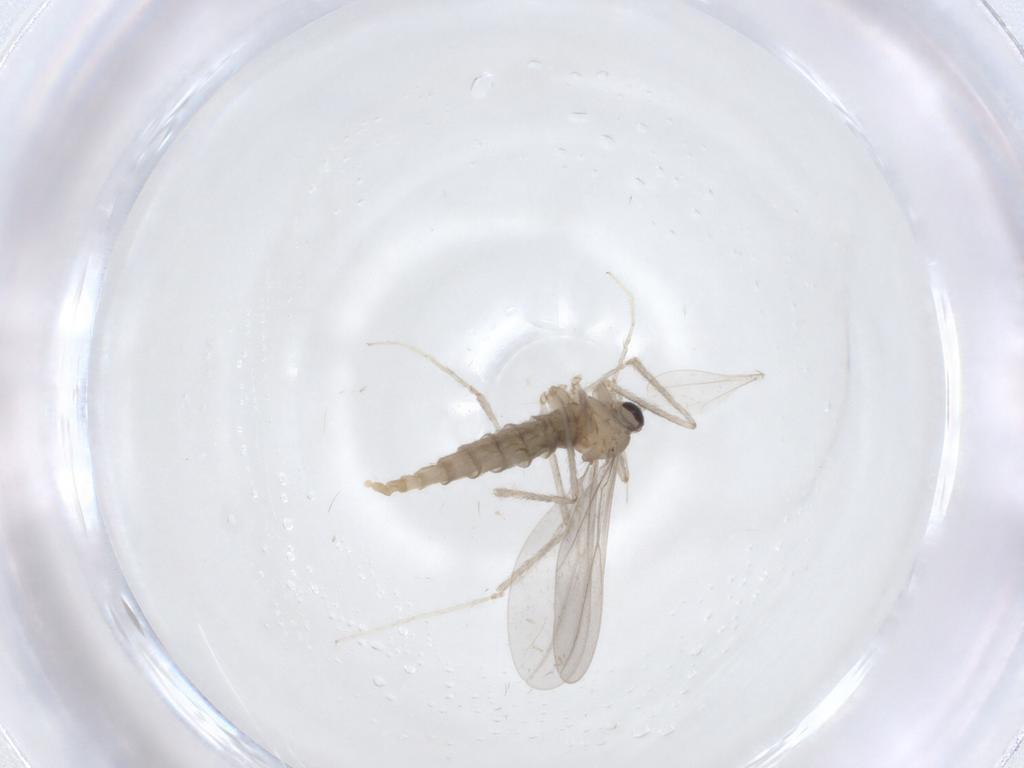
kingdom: Animalia
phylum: Arthropoda
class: Insecta
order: Diptera
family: Cecidomyiidae
